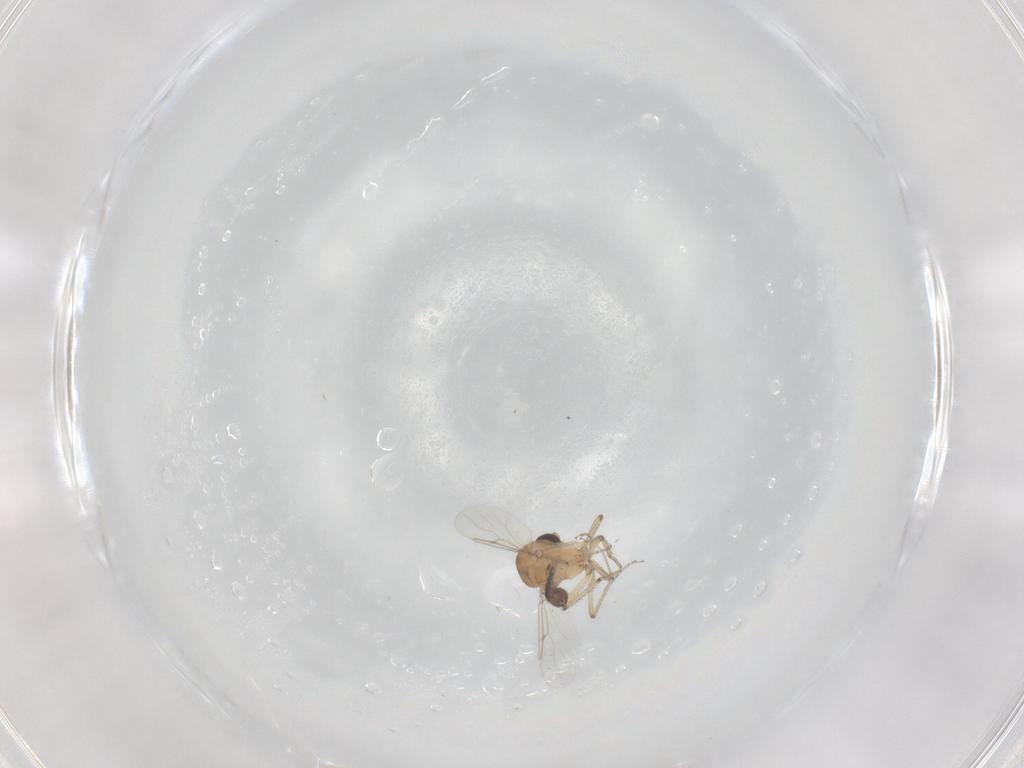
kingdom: Animalia
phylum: Arthropoda
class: Insecta
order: Diptera
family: Ceratopogonidae
